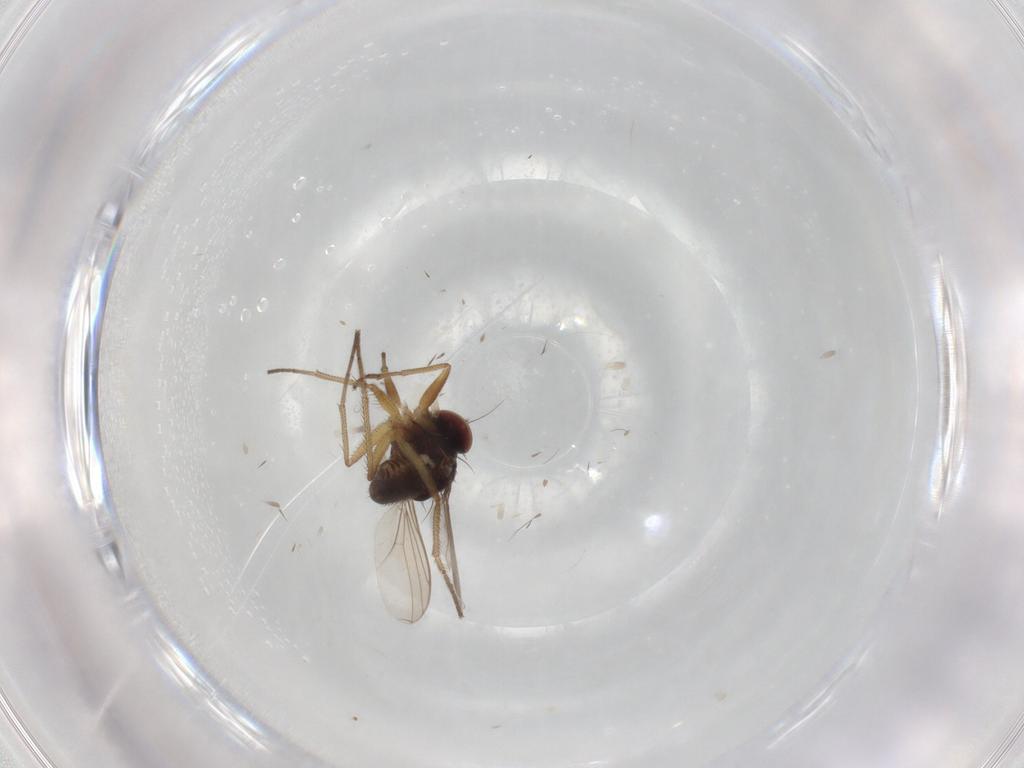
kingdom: Animalia
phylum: Arthropoda
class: Insecta
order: Diptera
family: Dolichopodidae
